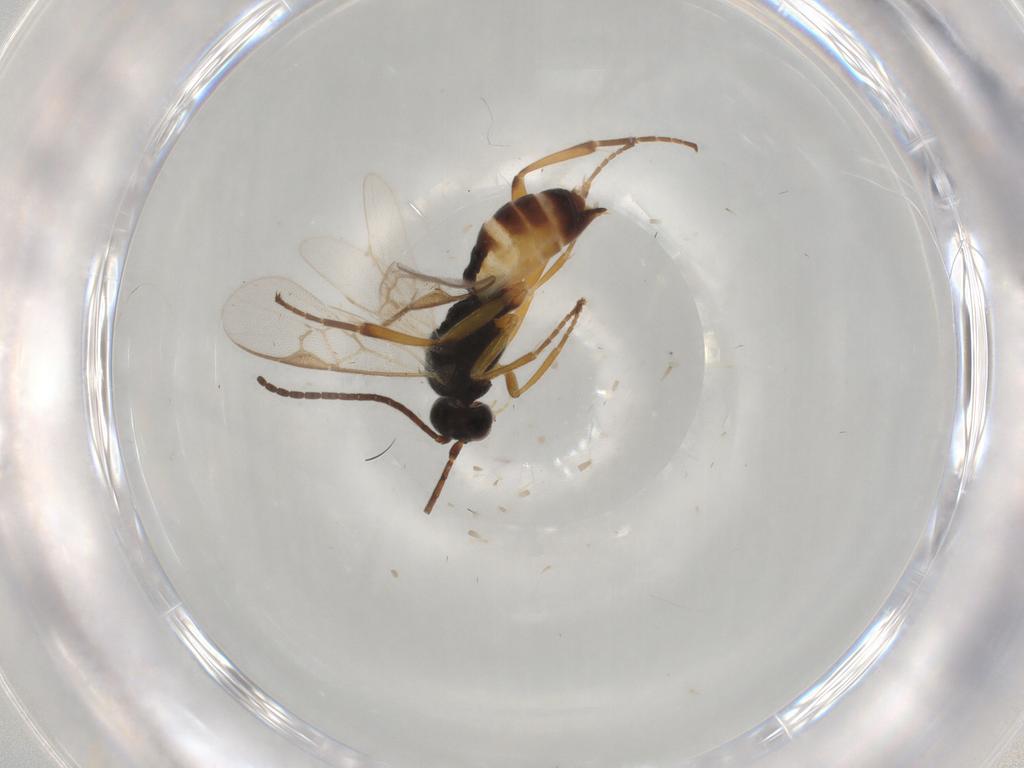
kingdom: Animalia
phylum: Arthropoda
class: Insecta
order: Hymenoptera
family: Braconidae
